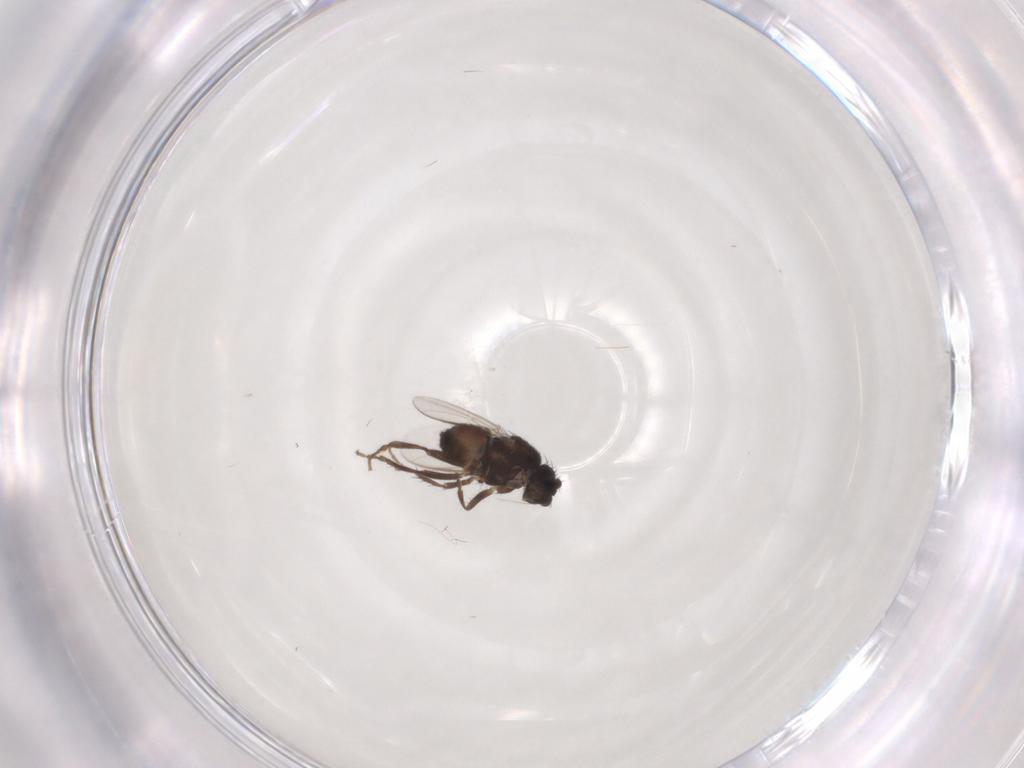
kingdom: Animalia
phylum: Arthropoda
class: Insecta
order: Diptera
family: Sphaeroceridae
